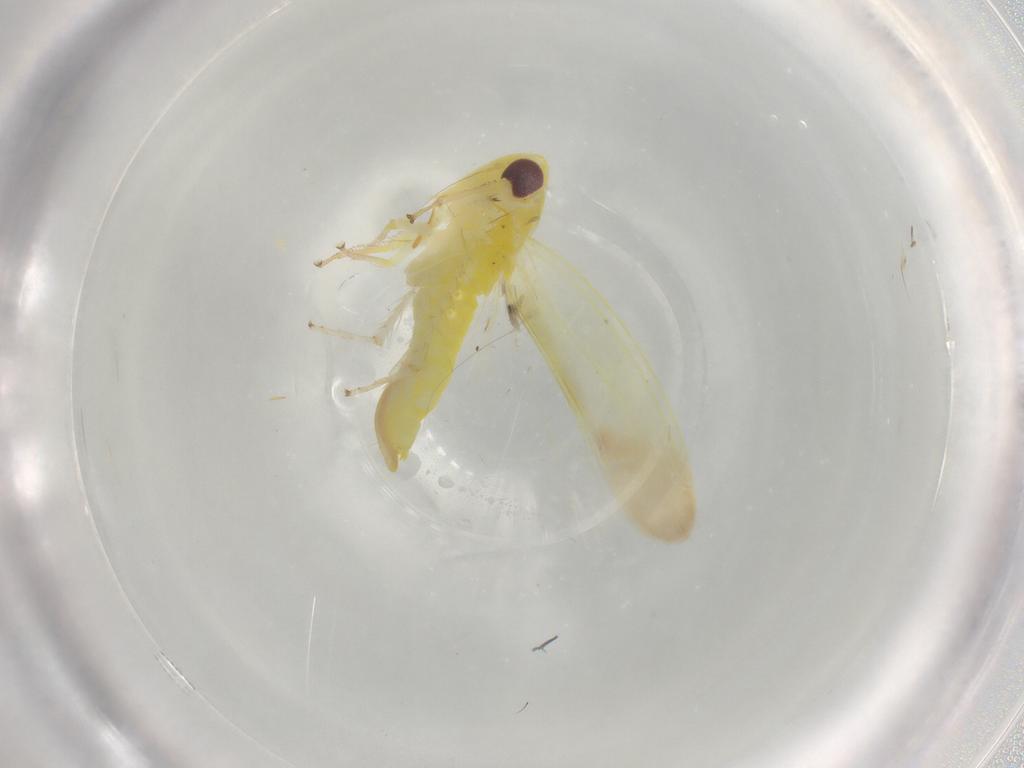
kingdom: Animalia
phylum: Arthropoda
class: Insecta
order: Hemiptera
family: Cicadellidae
